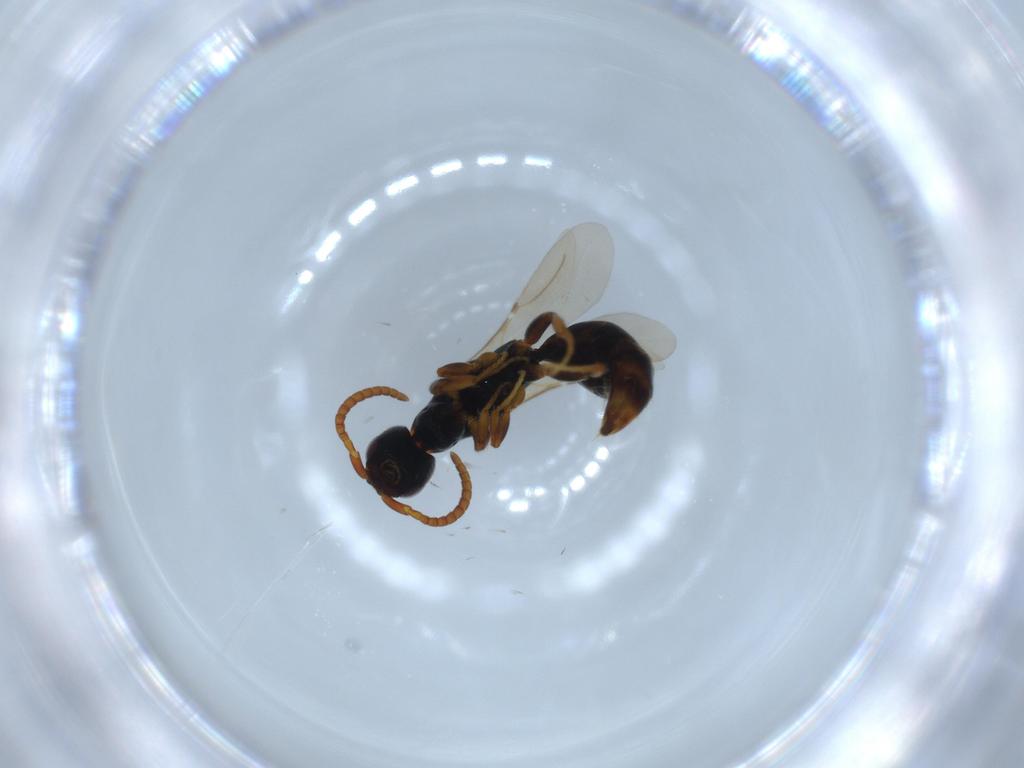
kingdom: Animalia
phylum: Arthropoda
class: Insecta
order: Hymenoptera
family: Bethylidae
